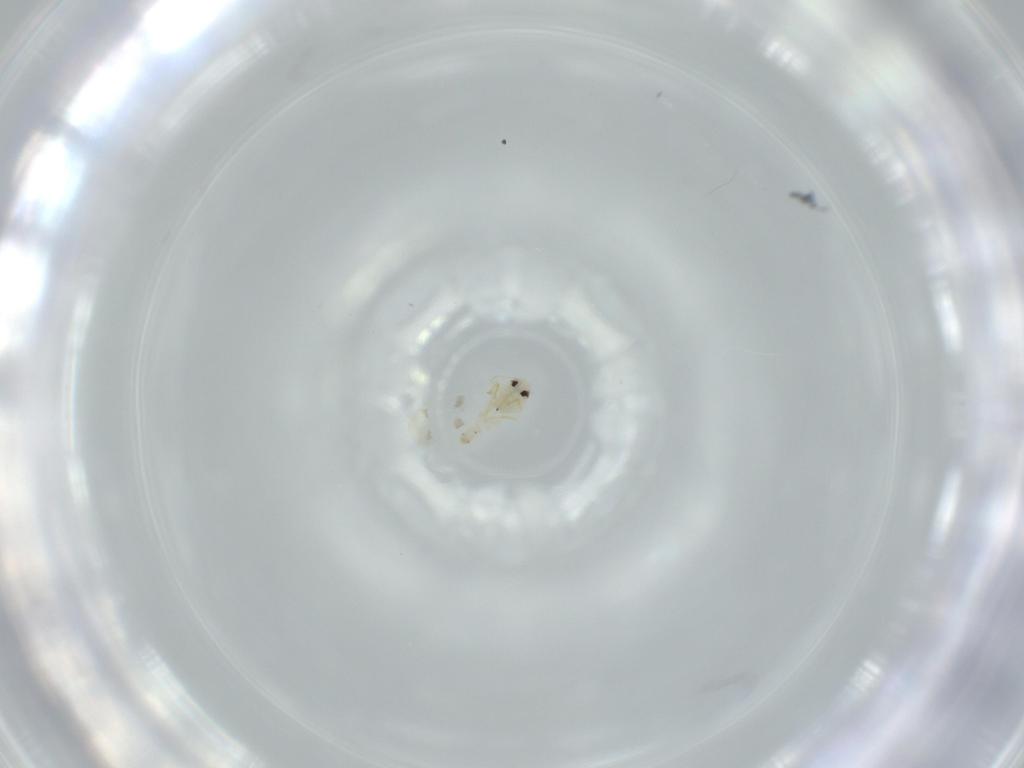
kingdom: Animalia
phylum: Arthropoda
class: Insecta
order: Hemiptera
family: Aleyrodidae
